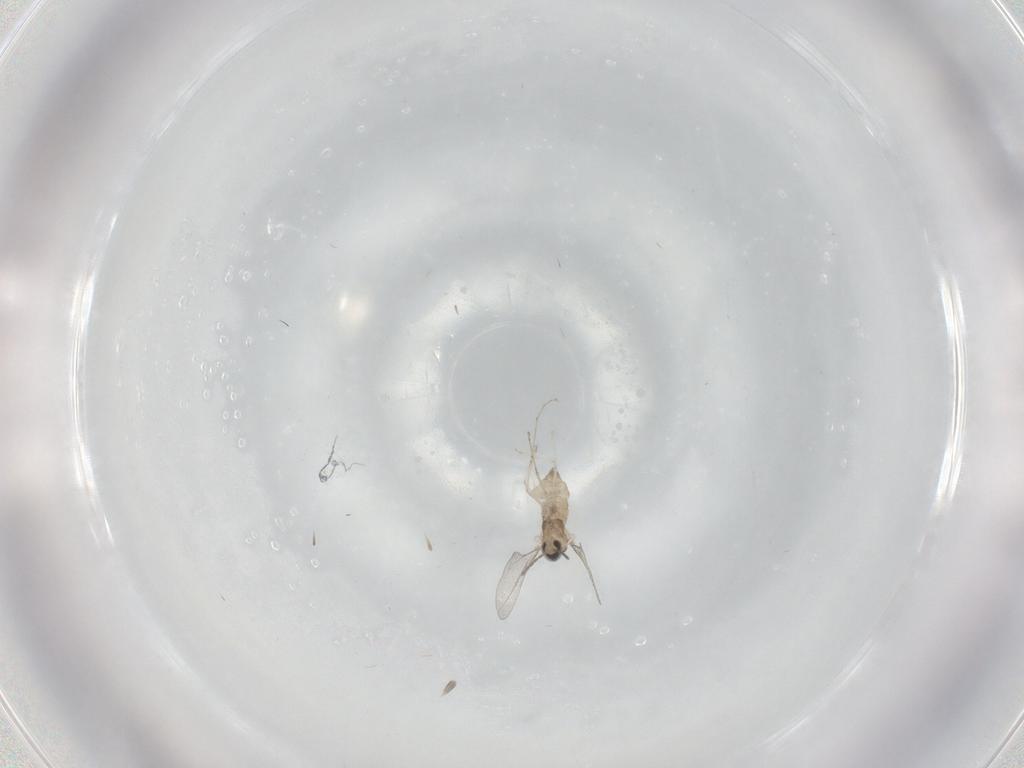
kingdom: Animalia
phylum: Arthropoda
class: Insecta
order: Diptera
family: Cecidomyiidae
